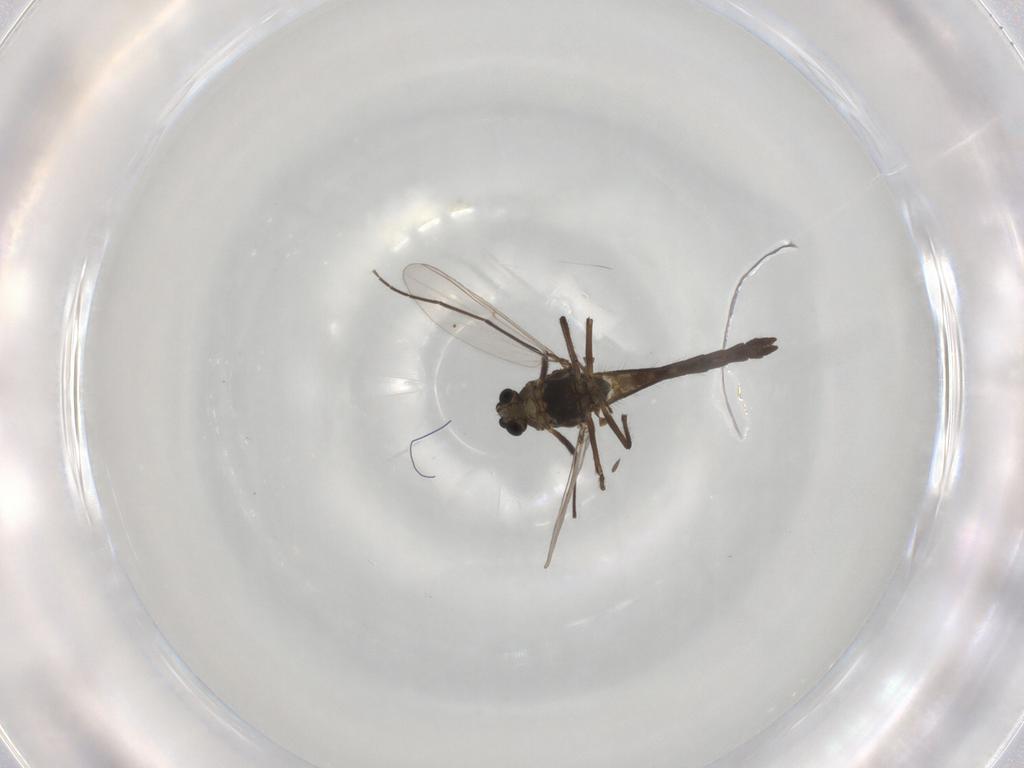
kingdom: Animalia
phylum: Arthropoda
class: Insecta
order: Diptera
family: Chironomidae
